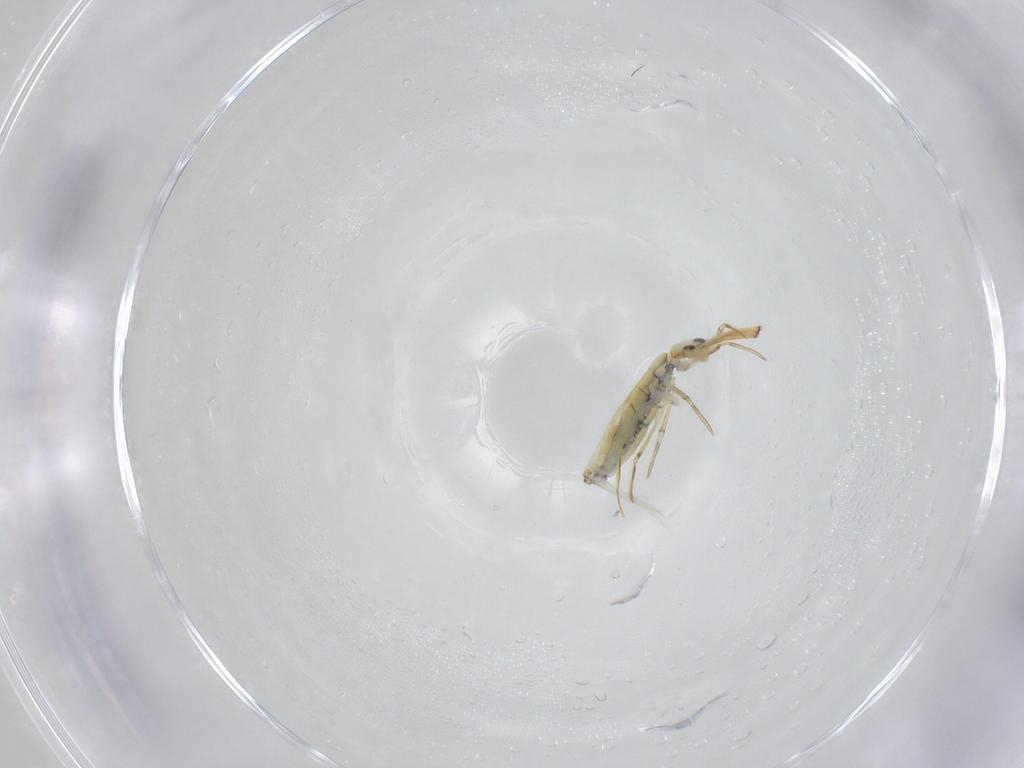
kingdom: Animalia
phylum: Arthropoda
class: Collembola
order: Entomobryomorpha
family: Paronellidae
